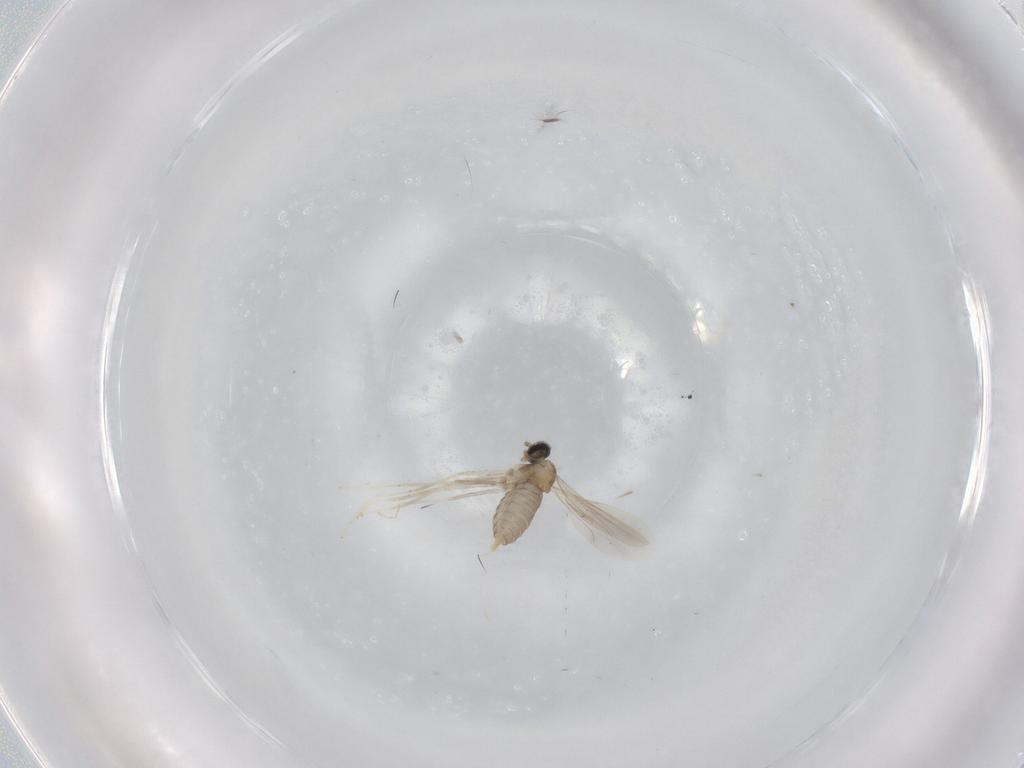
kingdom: Animalia
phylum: Arthropoda
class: Insecta
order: Diptera
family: Cecidomyiidae
